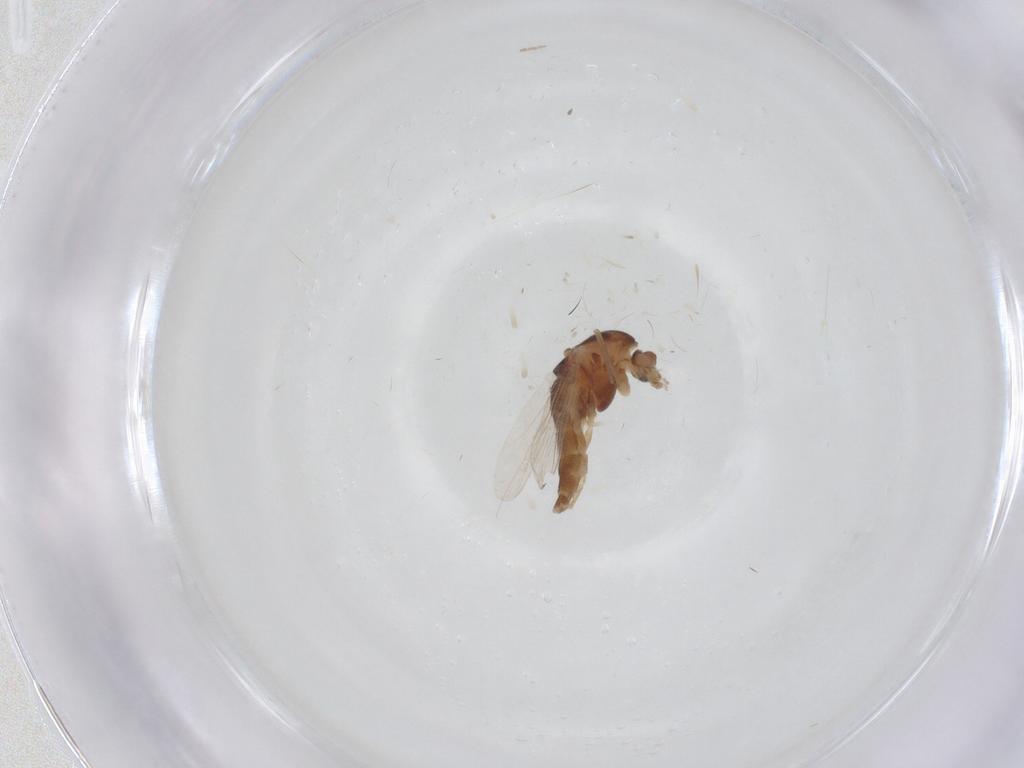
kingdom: Animalia
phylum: Arthropoda
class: Insecta
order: Diptera
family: Chironomidae
